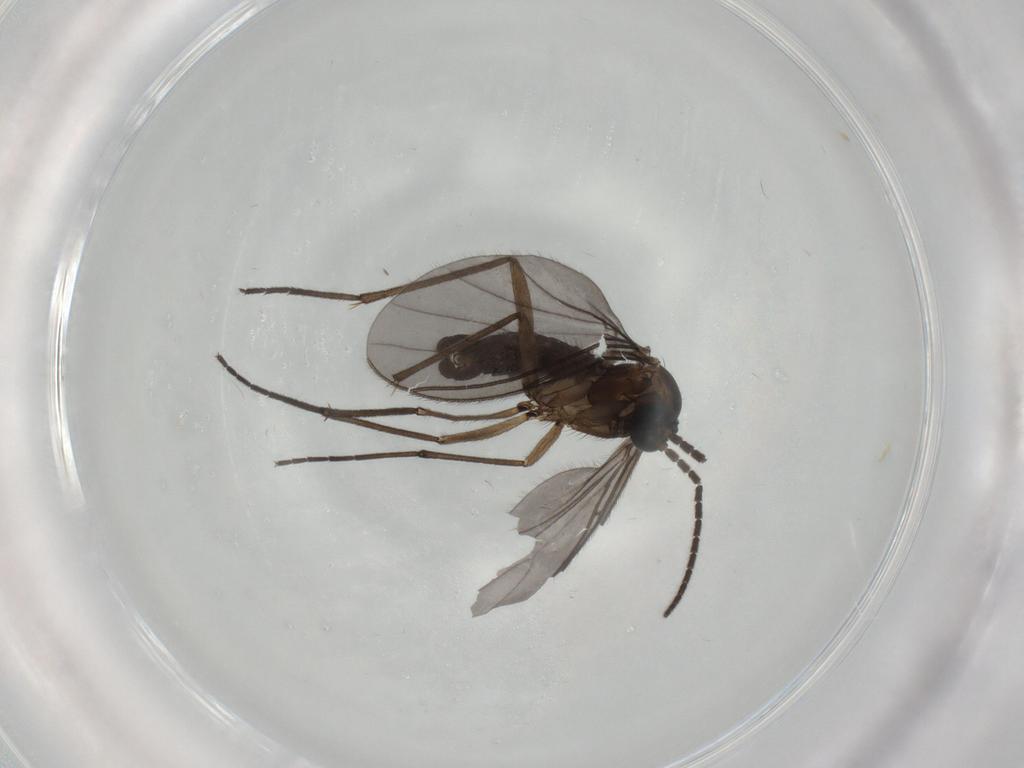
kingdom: Animalia
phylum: Arthropoda
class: Insecta
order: Diptera
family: Sciaridae
